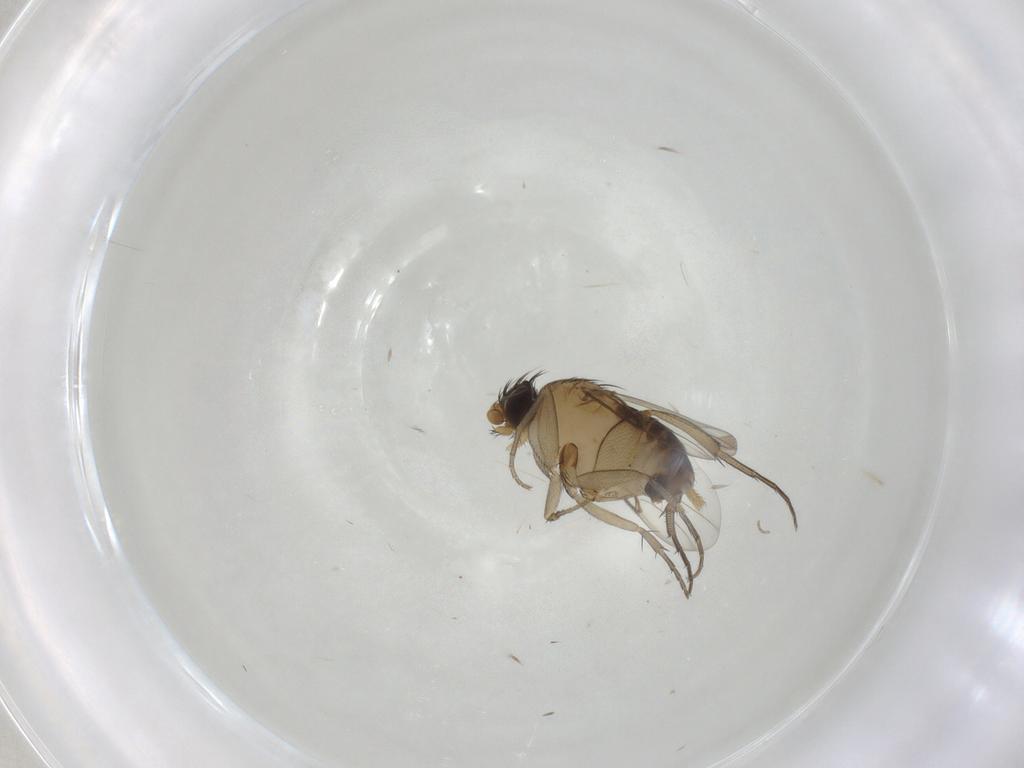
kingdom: Animalia
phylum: Arthropoda
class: Insecta
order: Diptera
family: Phoridae
